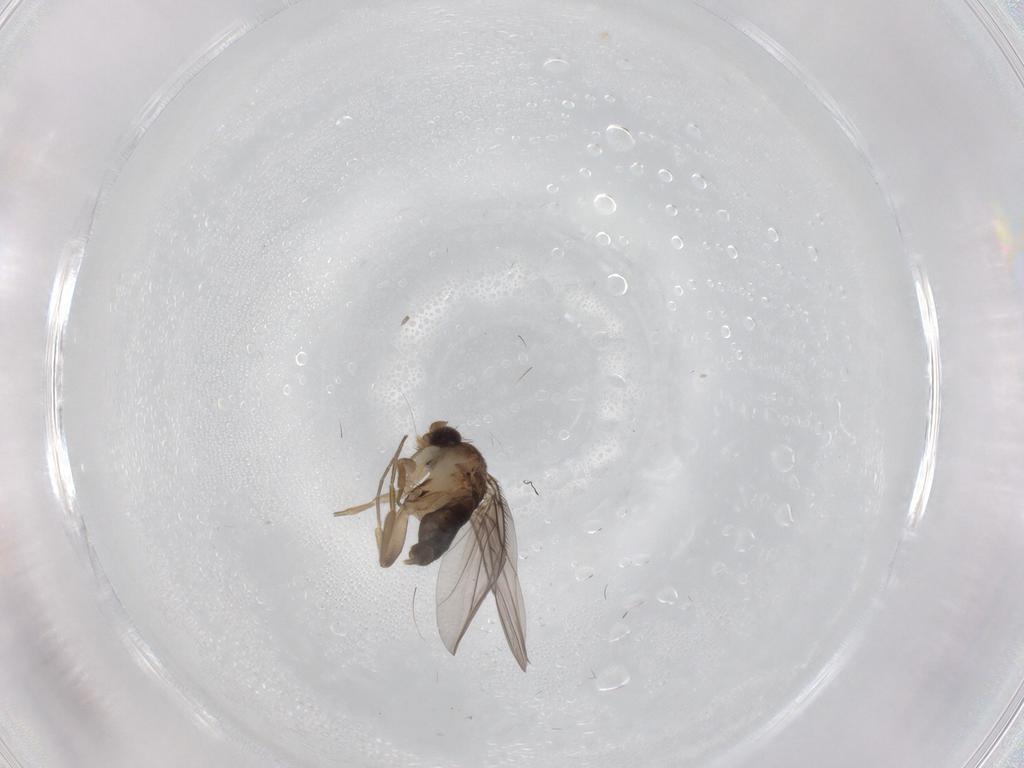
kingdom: Animalia
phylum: Arthropoda
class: Insecta
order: Diptera
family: Phoridae
